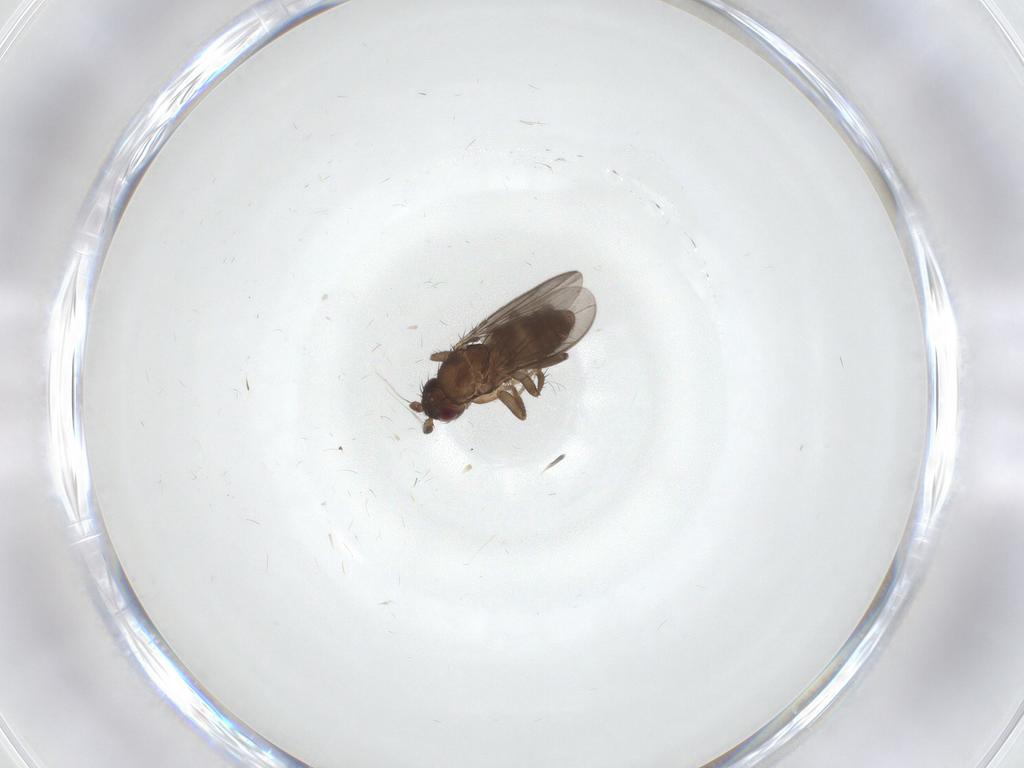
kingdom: Animalia
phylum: Arthropoda
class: Insecta
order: Diptera
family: Sphaeroceridae
